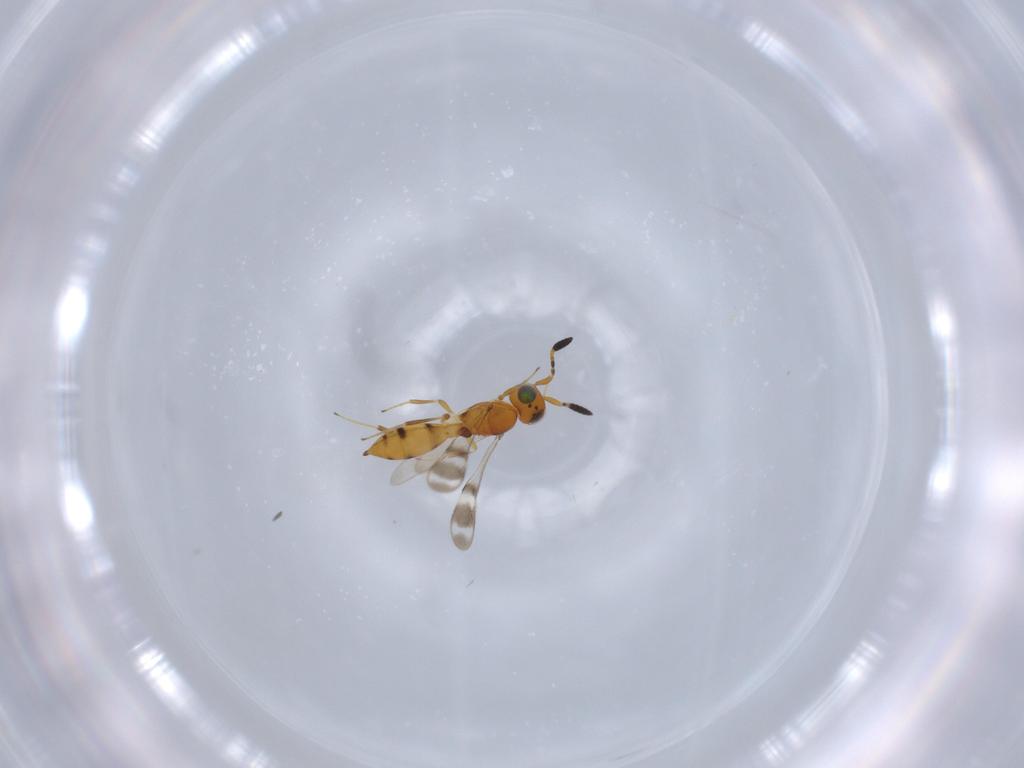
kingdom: Animalia
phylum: Arthropoda
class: Insecta
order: Hymenoptera
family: Scelionidae
